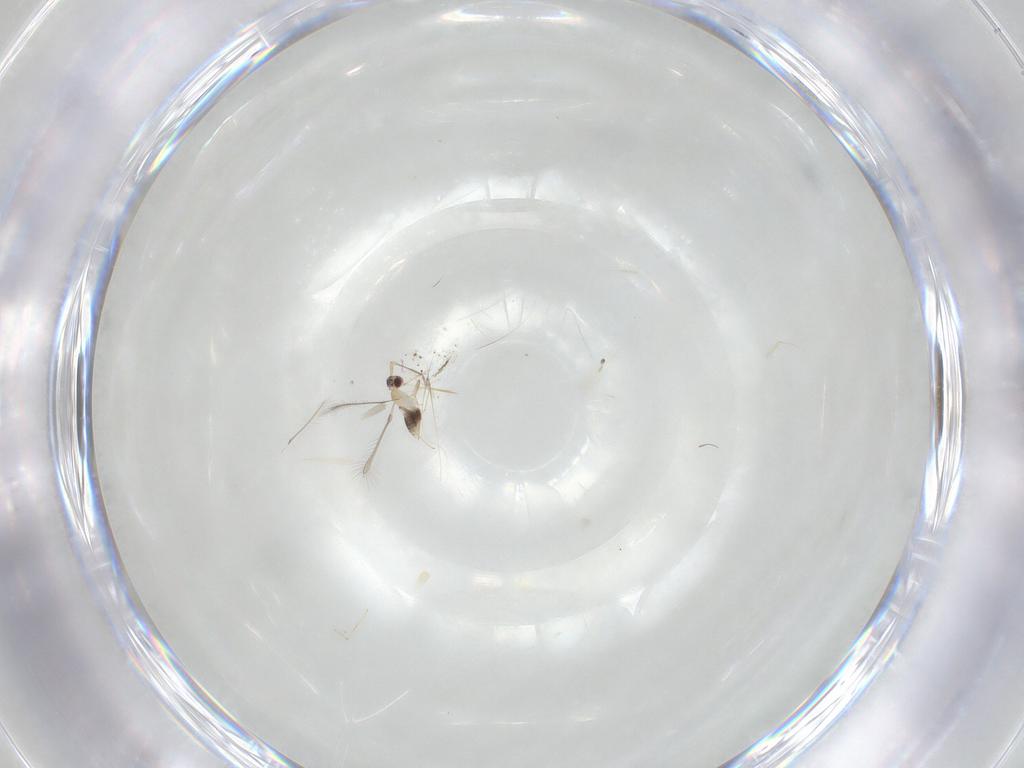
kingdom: Animalia
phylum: Arthropoda
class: Insecta
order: Hymenoptera
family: Mymaridae
